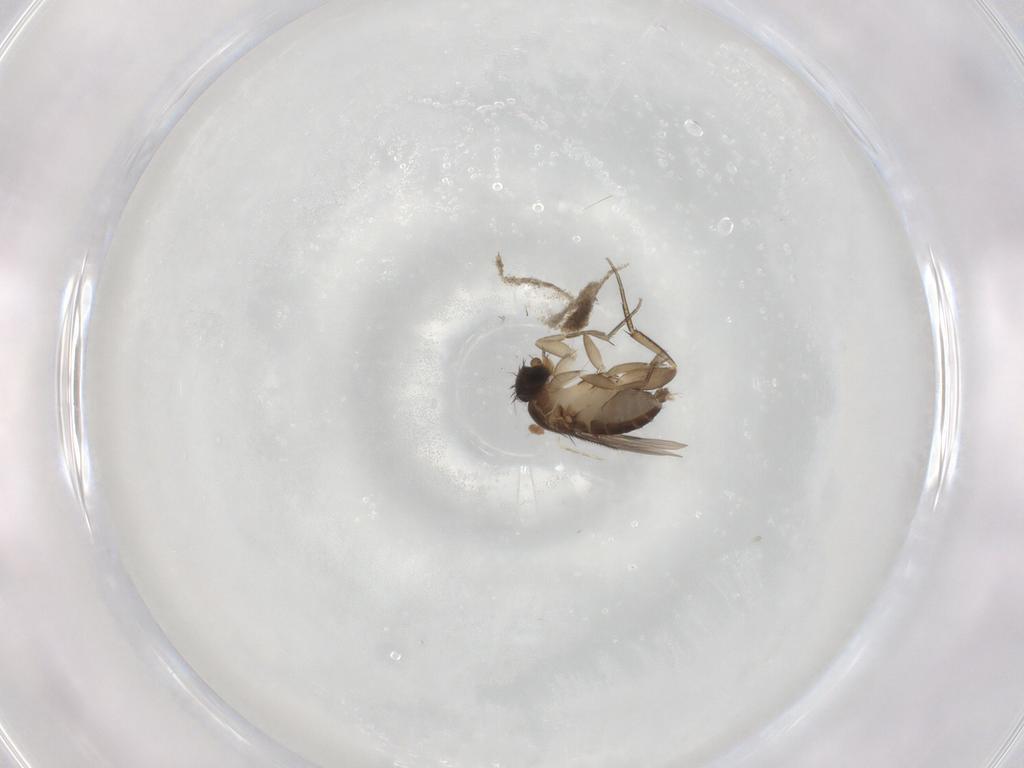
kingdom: Animalia
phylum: Arthropoda
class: Insecta
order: Diptera
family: Phoridae
